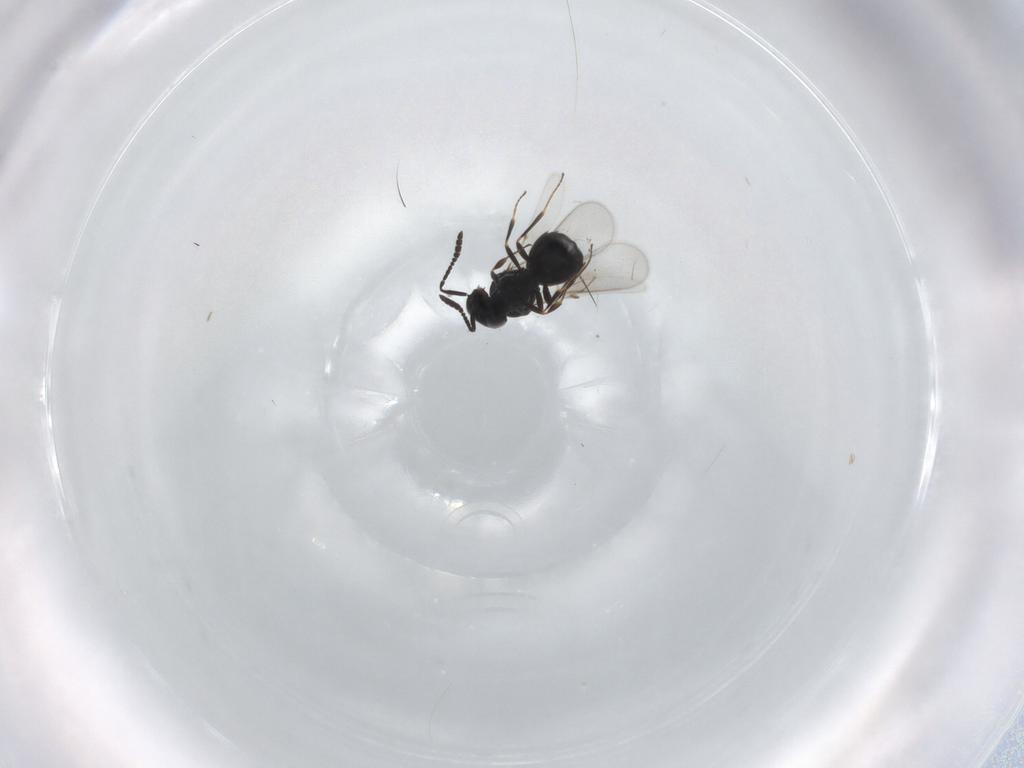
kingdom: Animalia
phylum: Arthropoda
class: Insecta
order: Hymenoptera
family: Scelionidae
